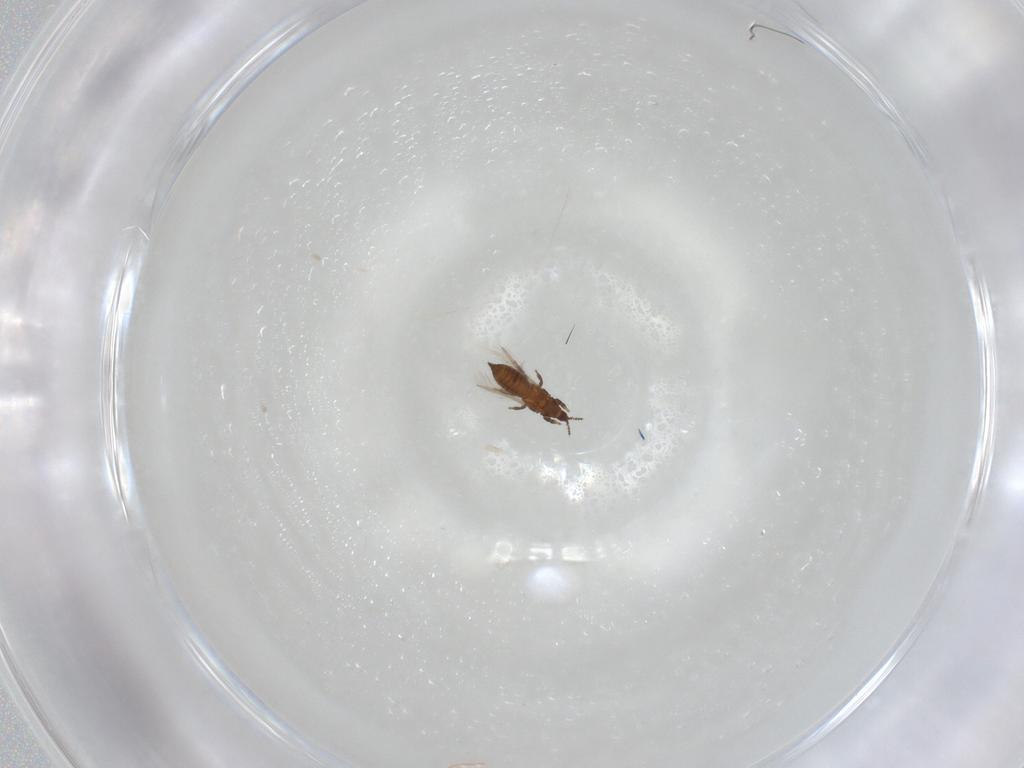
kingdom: Animalia
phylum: Arthropoda
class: Insecta
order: Thysanoptera
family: Thripidae
